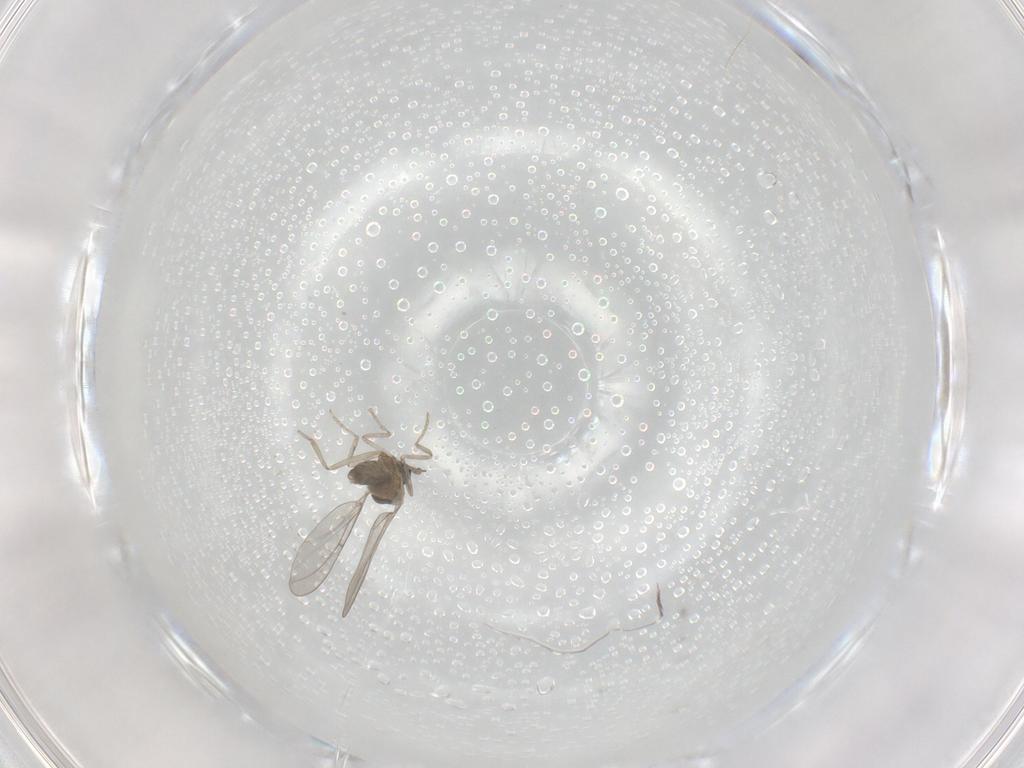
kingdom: Animalia
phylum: Arthropoda
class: Insecta
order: Diptera
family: Cecidomyiidae
